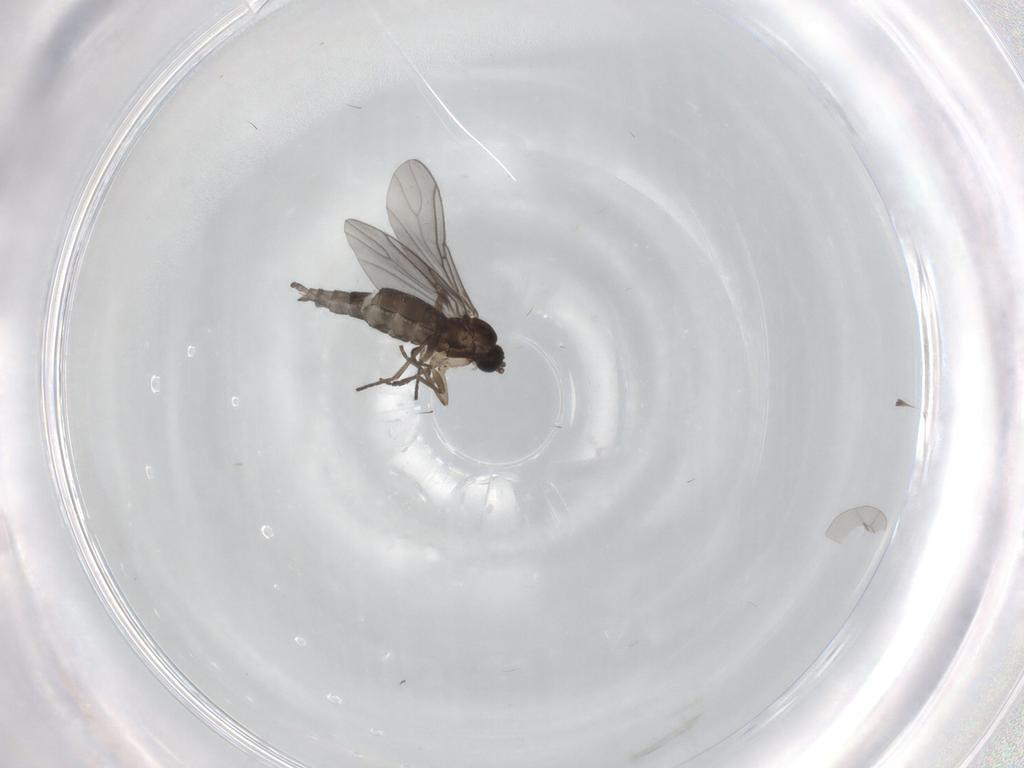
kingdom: Animalia
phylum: Arthropoda
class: Insecta
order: Diptera
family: Sciaridae
